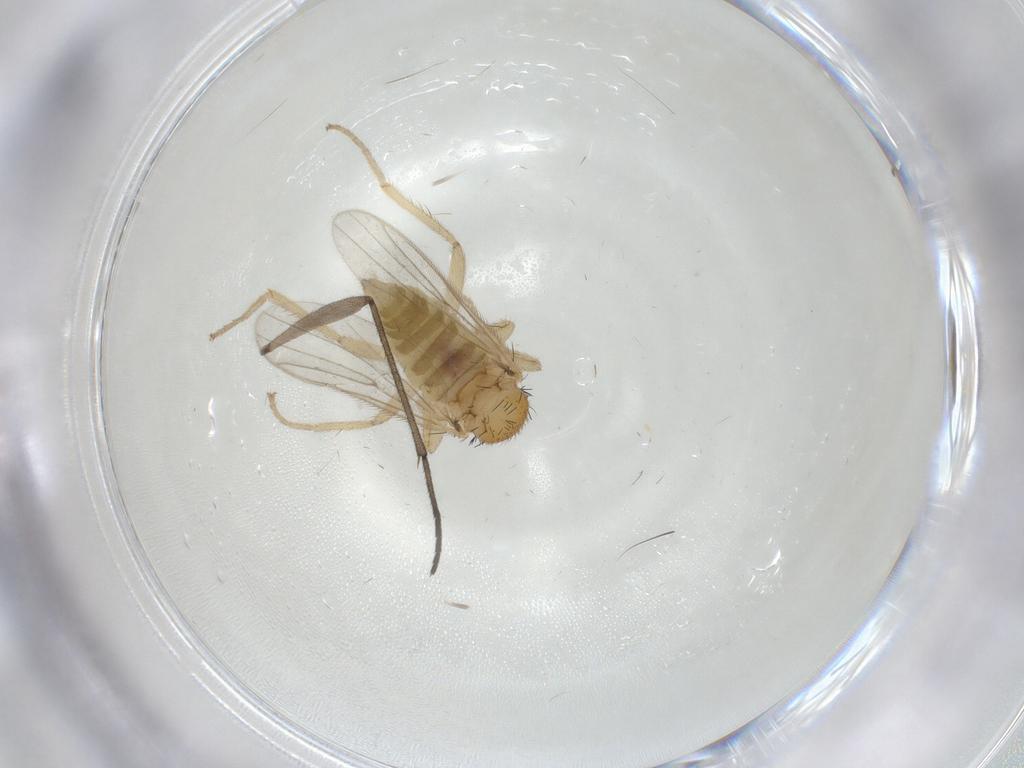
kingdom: Animalia
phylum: Arthropoda
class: Insecta
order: Diptera
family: Hybotidae
